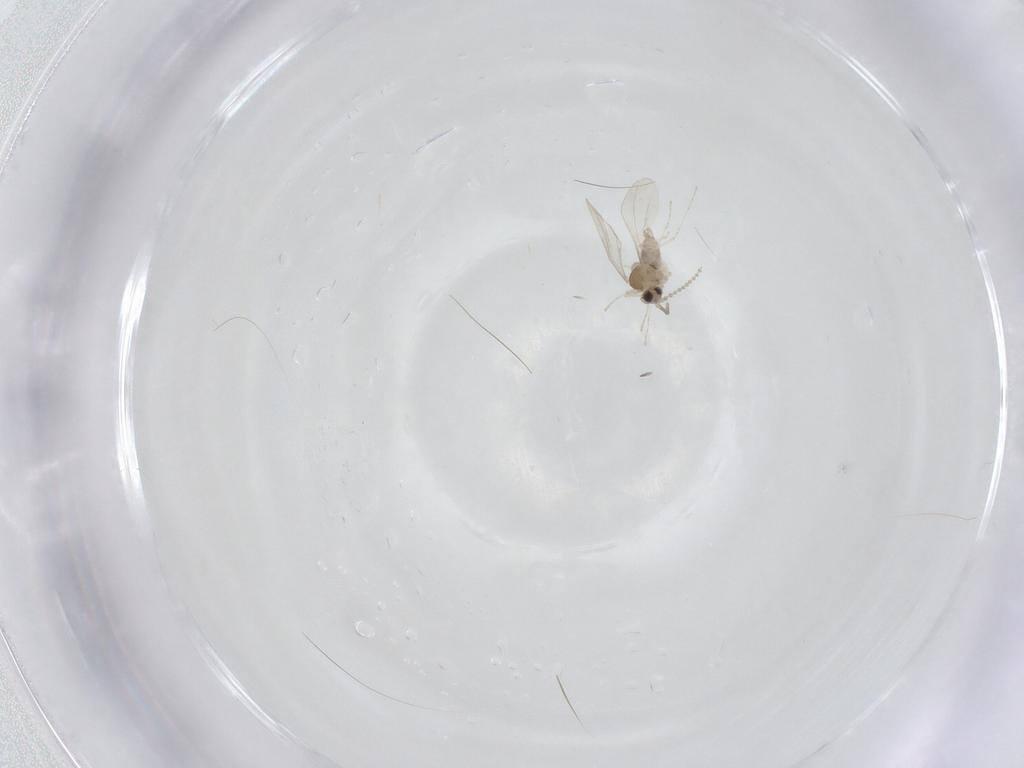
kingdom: Animalia
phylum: Arthropoda
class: Insecta
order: Diptera
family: Cecidomyiidae
